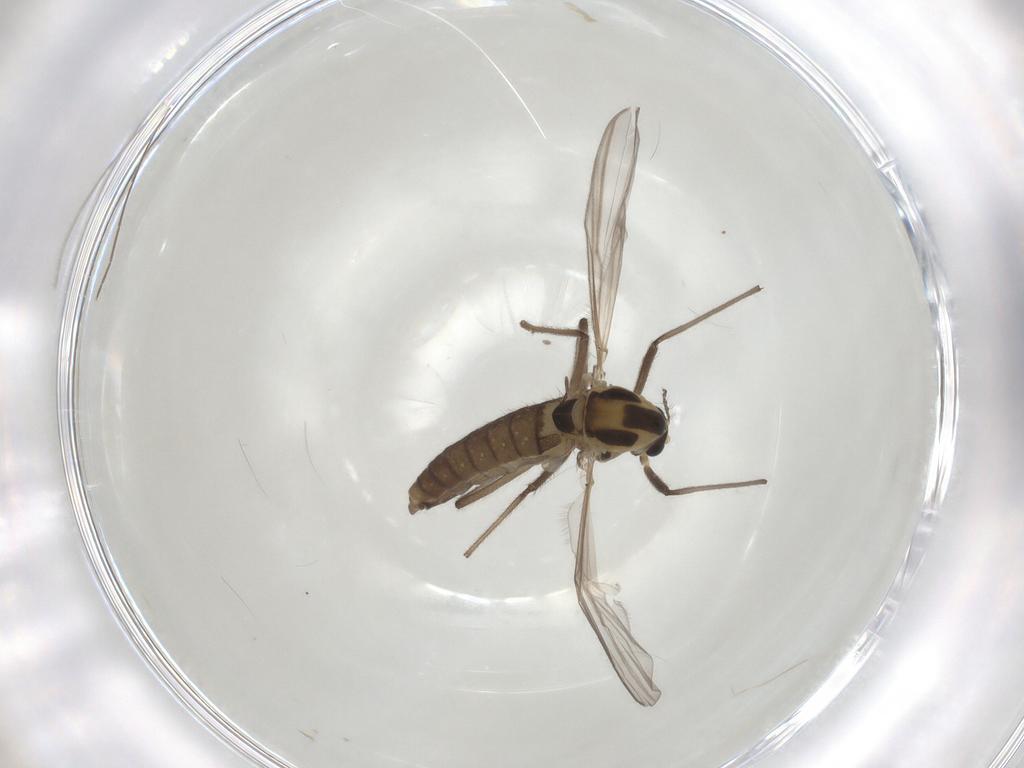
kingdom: Animalia
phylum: Arthropoda
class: Insecta
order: Diptera
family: Chironomidae
